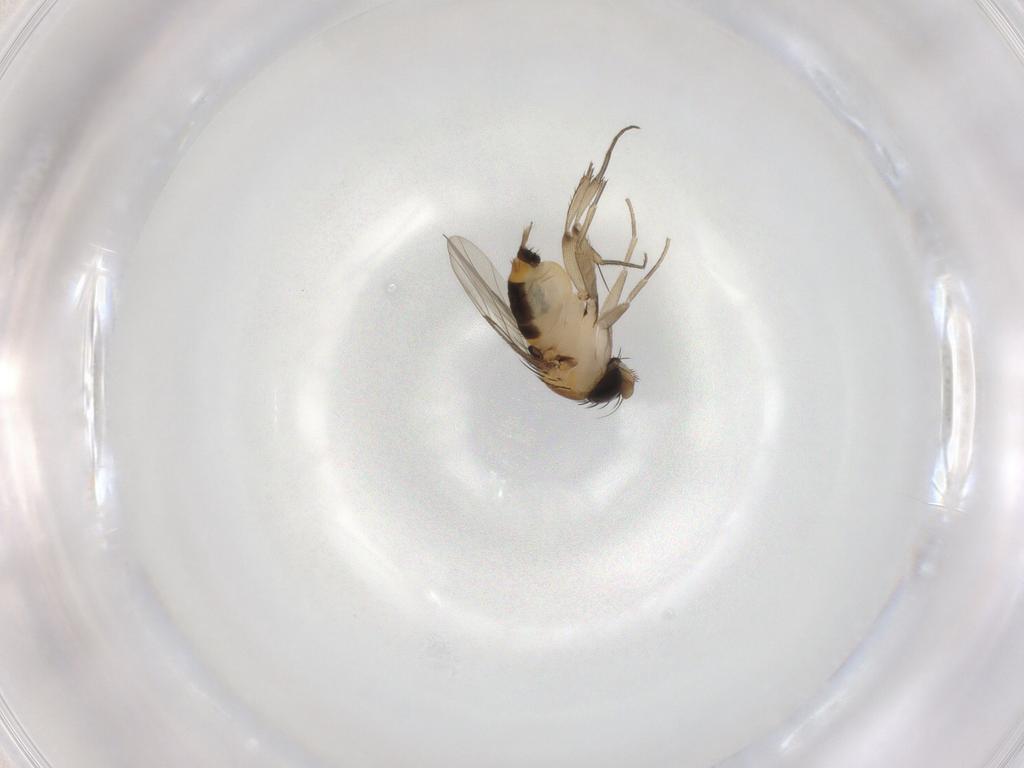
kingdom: Animalia
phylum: Arthropoda
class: Insecta
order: Diptera
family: Phoridae
